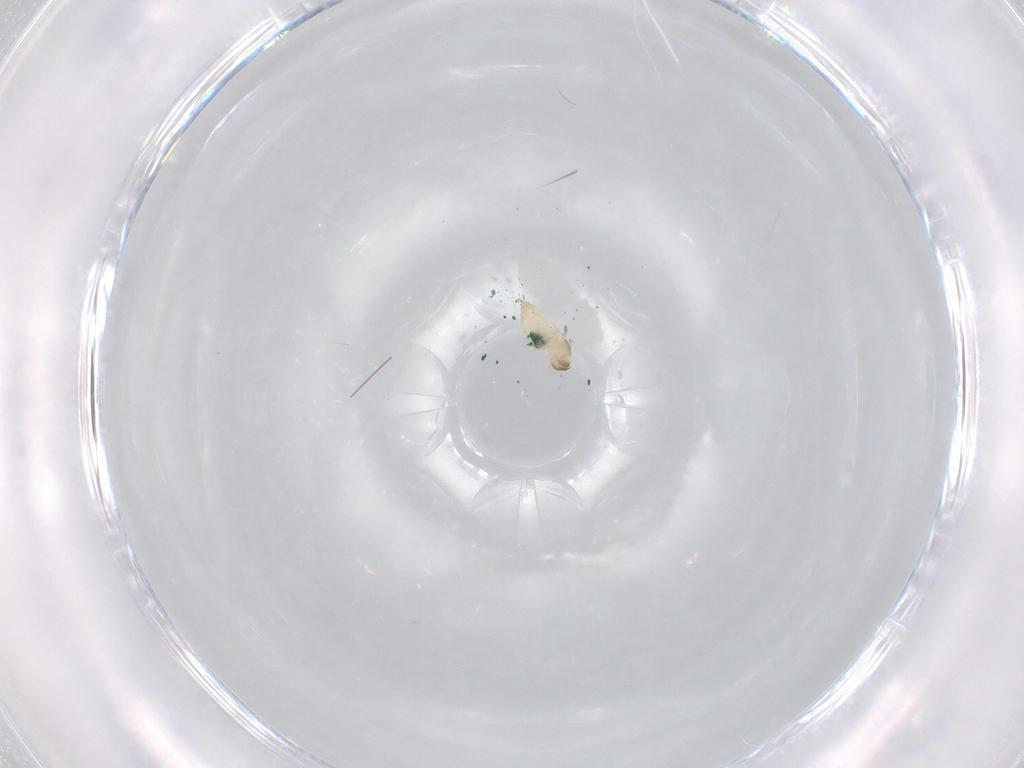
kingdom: Animalia
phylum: Arthropoda
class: Insecta
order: Diptera
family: Cecidomyiidae
